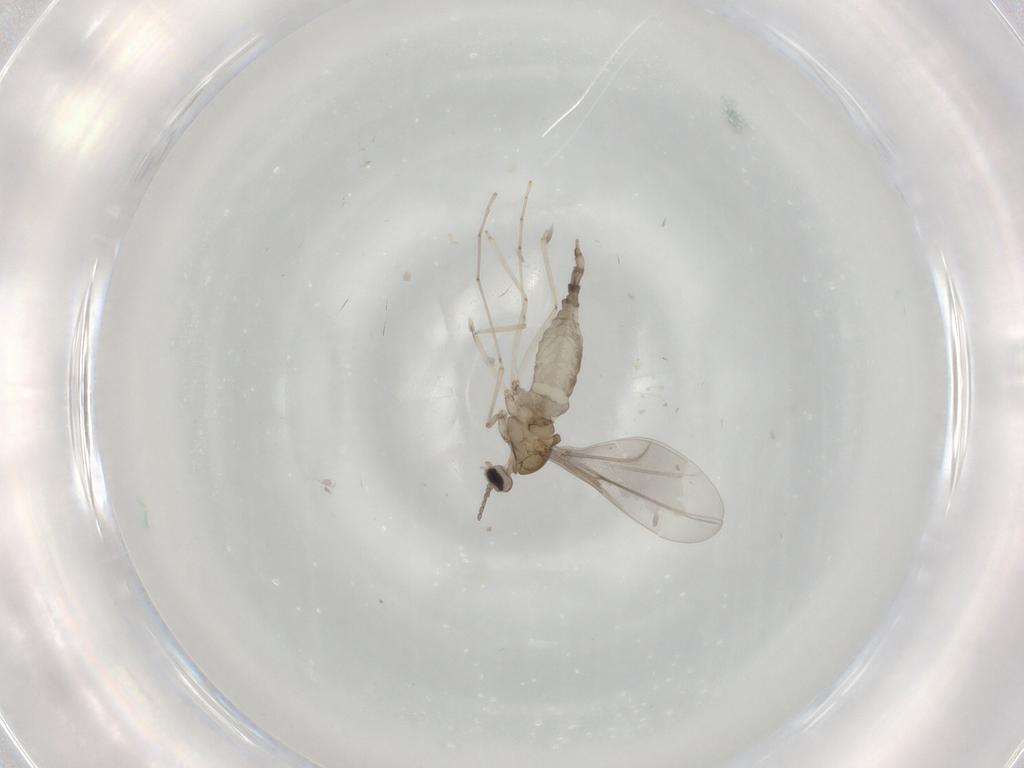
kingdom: Animalia
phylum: Arthropoda
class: Insecta
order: Diptera
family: Cecidomyiidae
